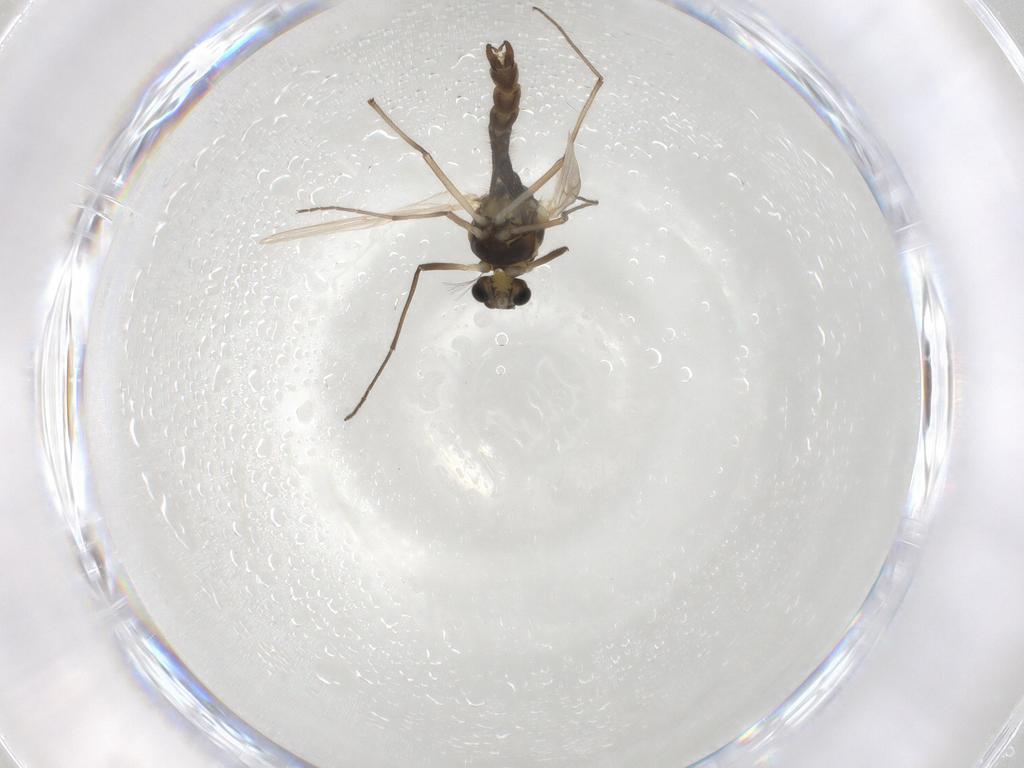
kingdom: Animalia
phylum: Arthropoda
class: Insecta
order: Diptera
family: Chironomidae
